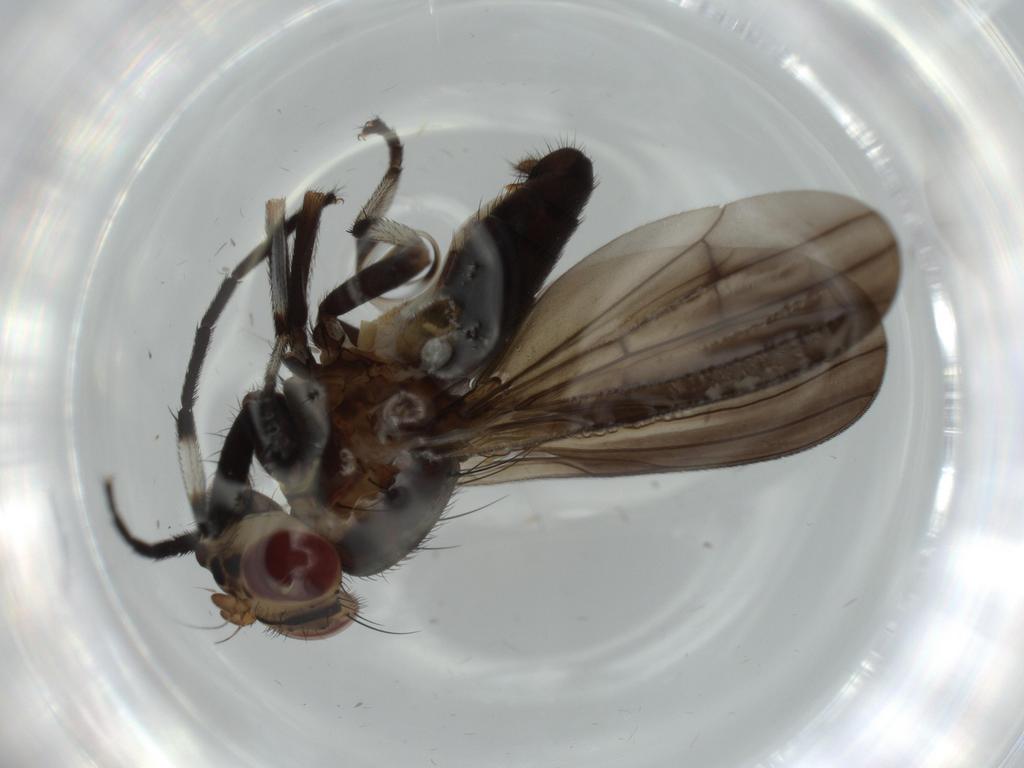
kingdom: Animalia
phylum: Arthropoda
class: Insecta
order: Diptera
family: Lauxaniidae
